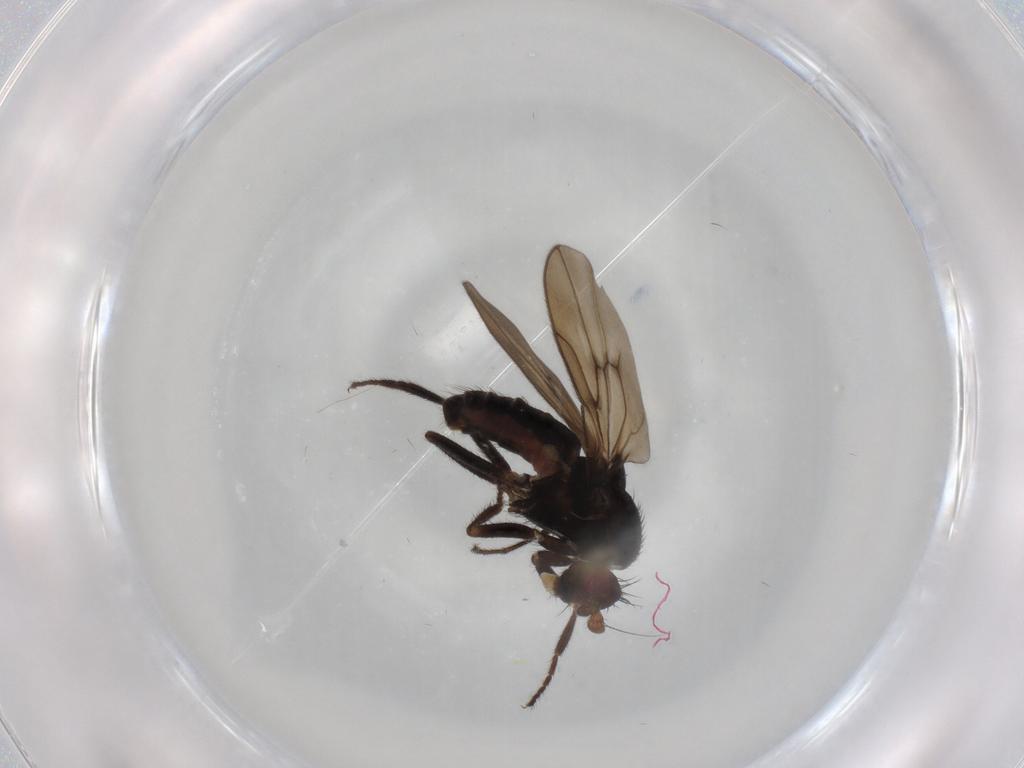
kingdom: Animalia
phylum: Arthropoda
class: Insecta
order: Diptera
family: Sphaeroceridae
